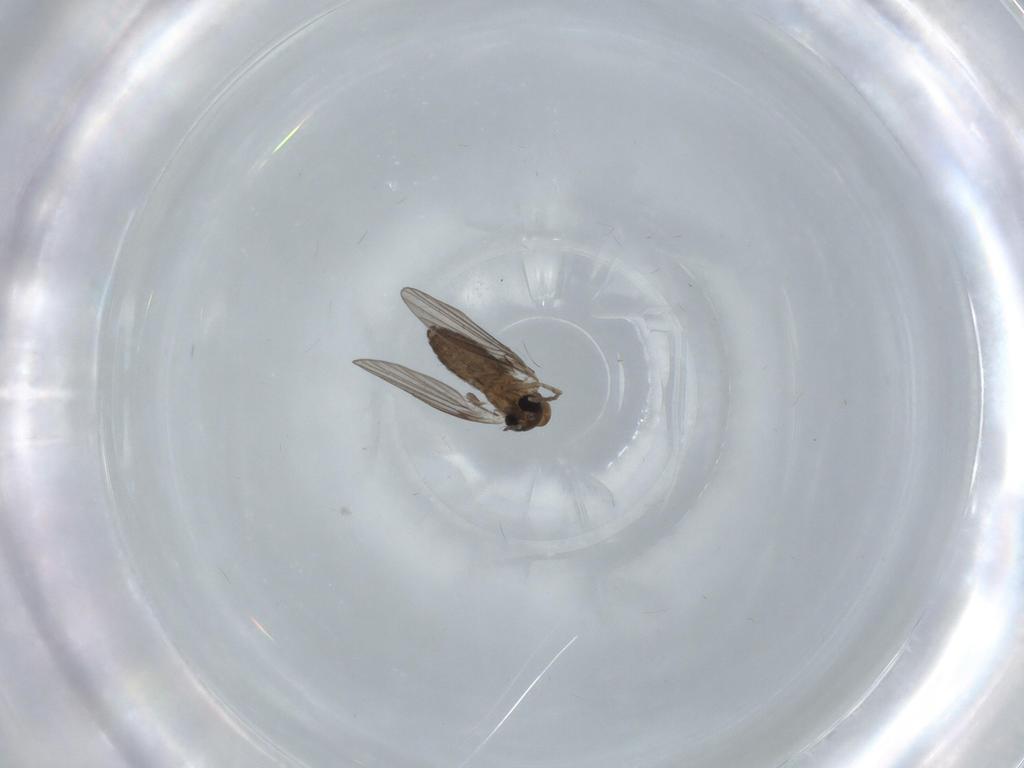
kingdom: Animalia
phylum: Arthropoda
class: Insecta
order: Diptera
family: Psychodidae
